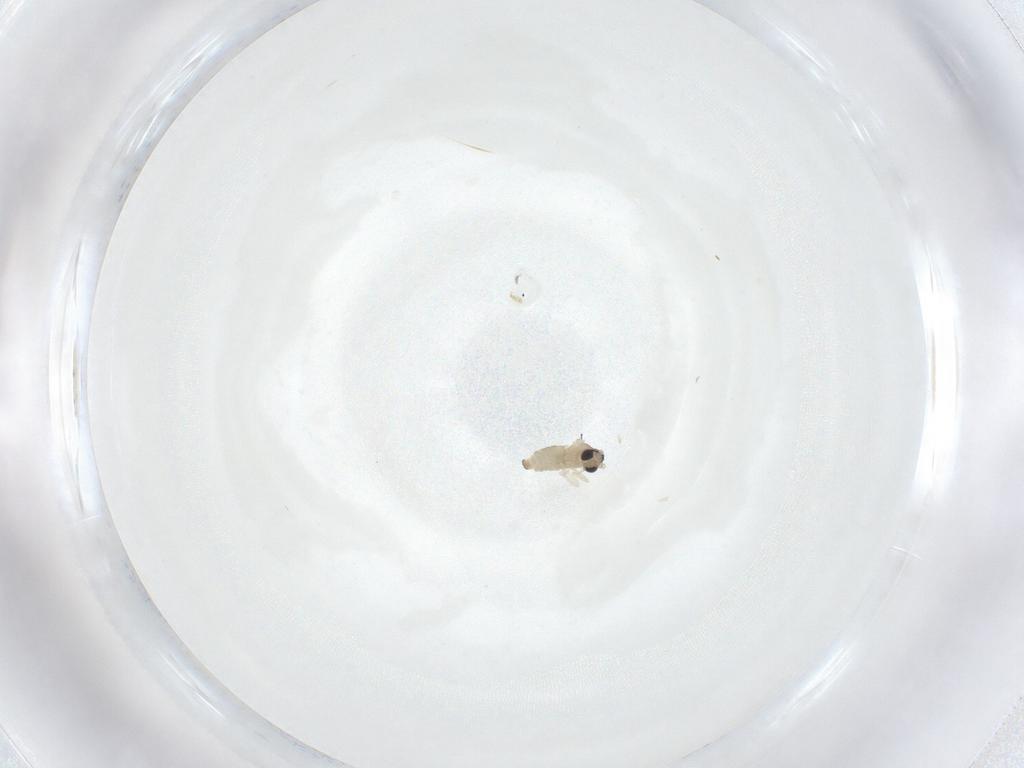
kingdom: Animalia
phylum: Arthropoda
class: Insecta
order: Diptera
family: Cecidomyiidae
